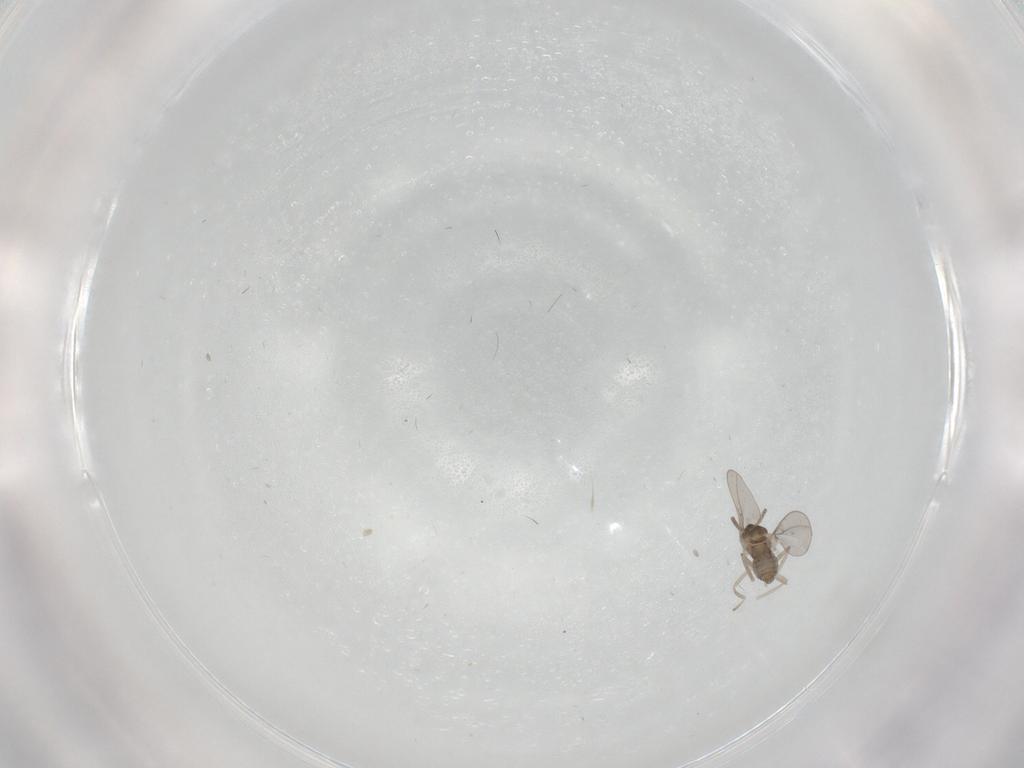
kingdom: Animalia
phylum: Arthropoda
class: Insecta
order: Diptera
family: Cecidomyiidae
